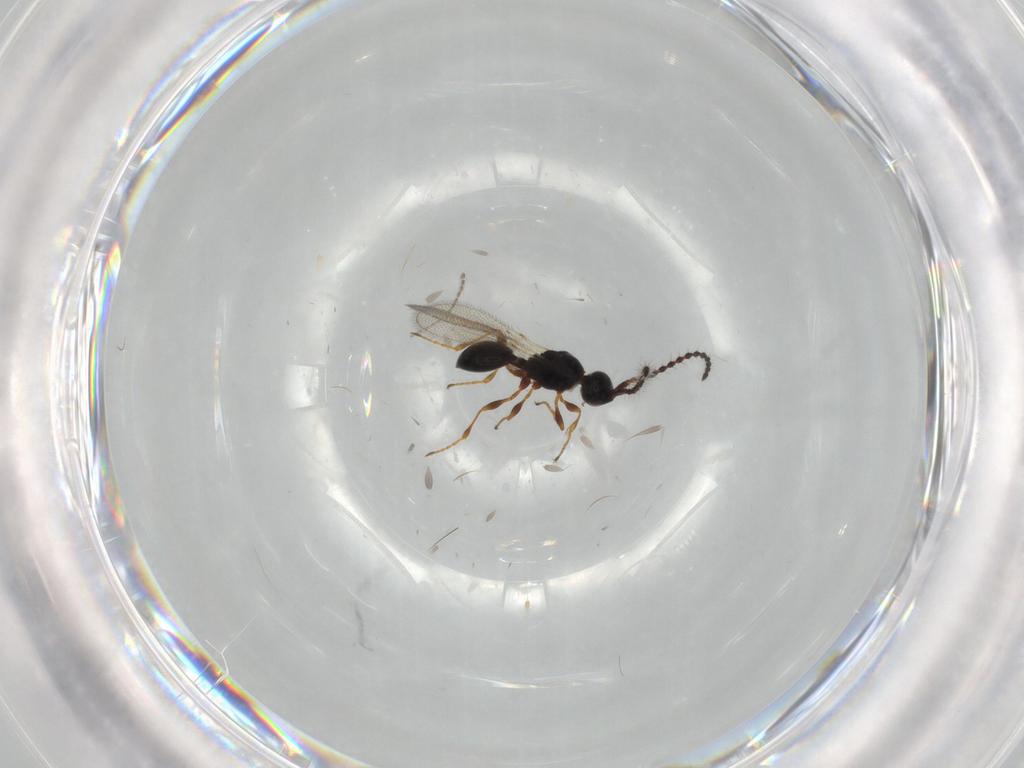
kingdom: Animalia
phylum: Arthropoda
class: Insecta
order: Hymenoptera
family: Diapriidae
